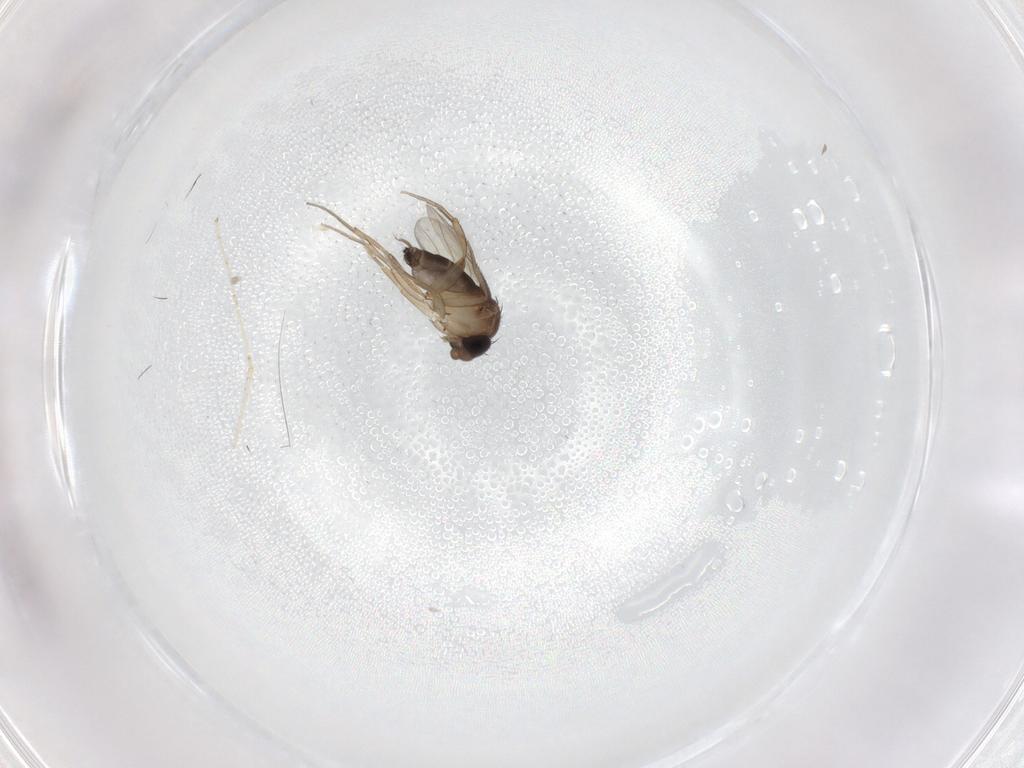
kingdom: Animalia
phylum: Arthropoda
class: Insecta
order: Diptera
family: Phoridae
